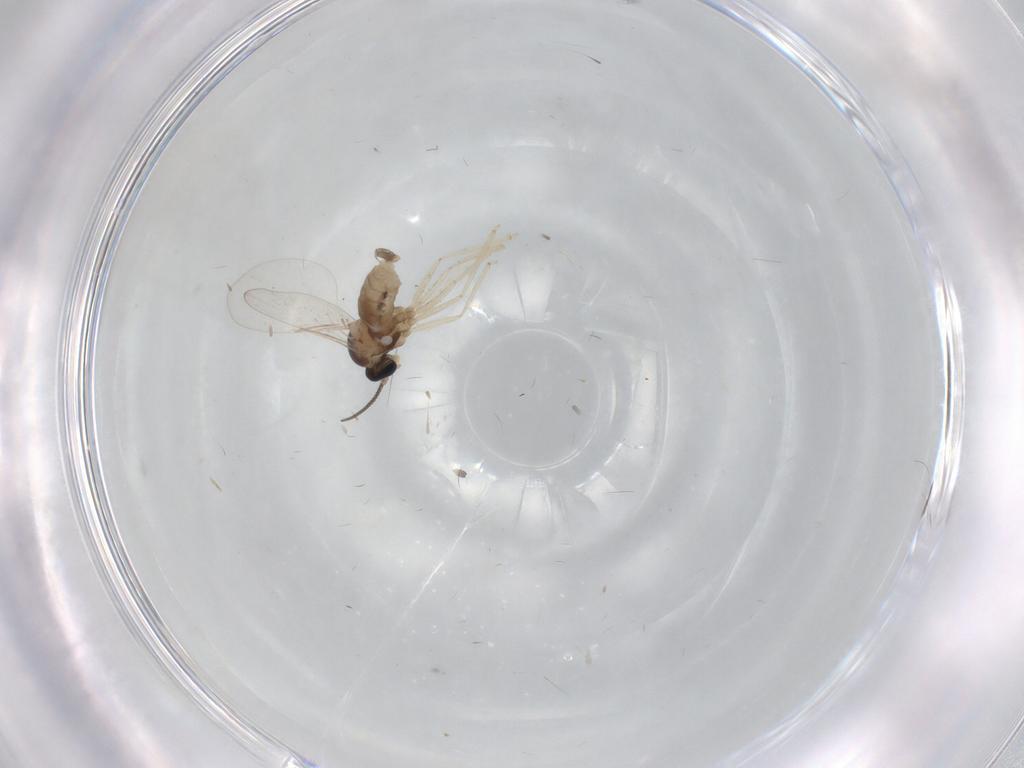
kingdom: Animalia
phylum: Arthropoda
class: Insecta
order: Diptera
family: Cecidomyiidae
